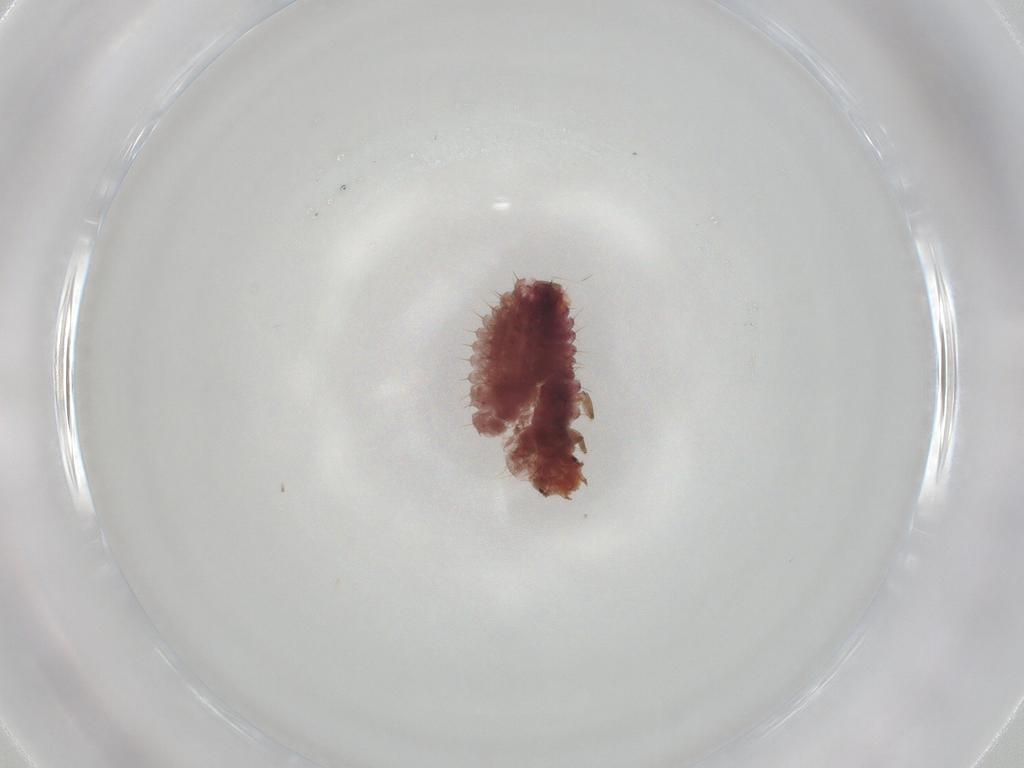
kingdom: Animalia
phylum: Arthropoda
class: Insecta
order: Coleoptera
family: Coccinellidae
